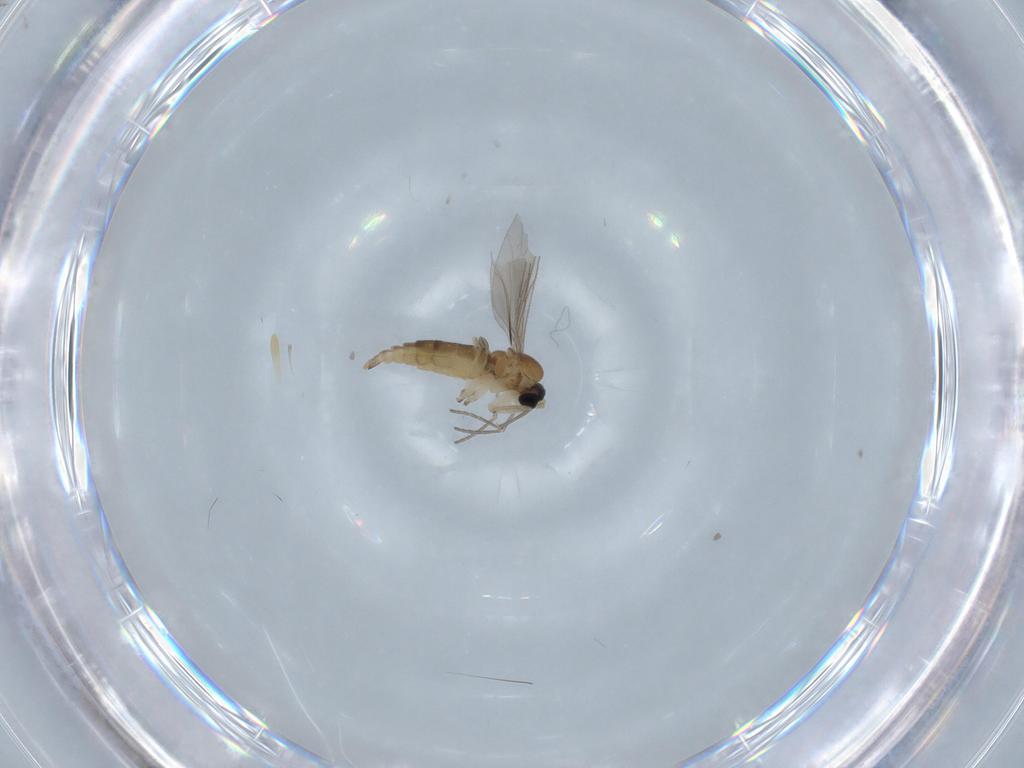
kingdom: Animalia
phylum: Arthropoda
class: Insecta
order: Diptera
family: Sciaridae
